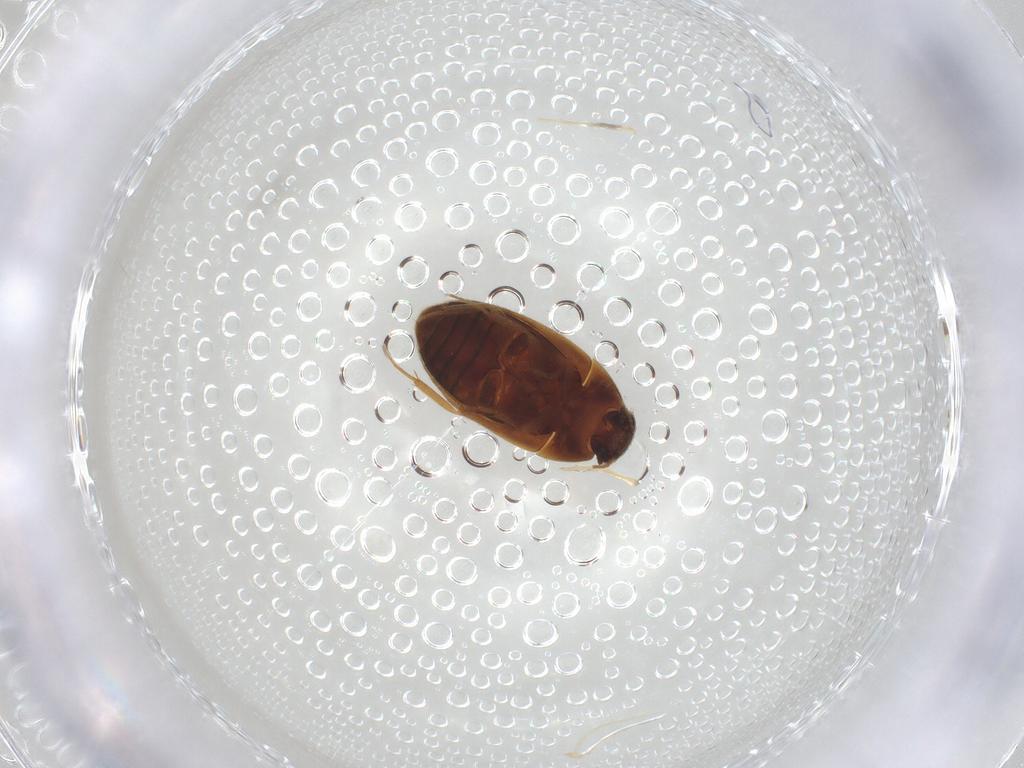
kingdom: Animalia
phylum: Arthropoda
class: Insecta
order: Coleoptera
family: Mycetophagidae
